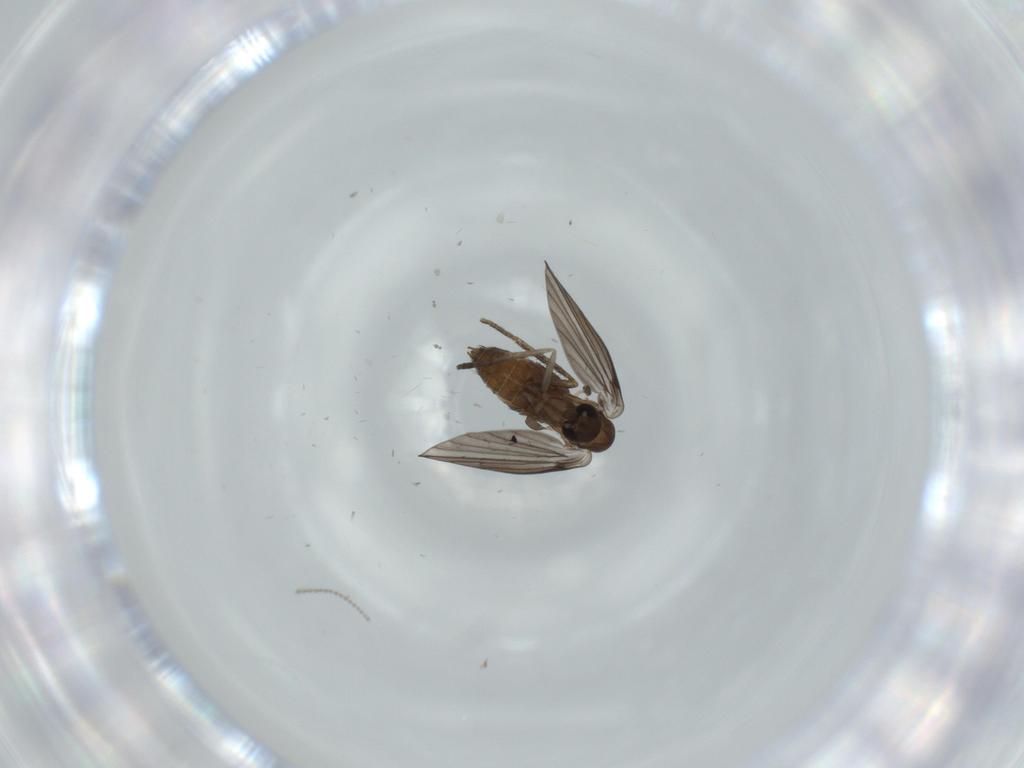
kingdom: Animalia
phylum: Arthropoda
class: Insecta
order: Diptera
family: Psychodidae
